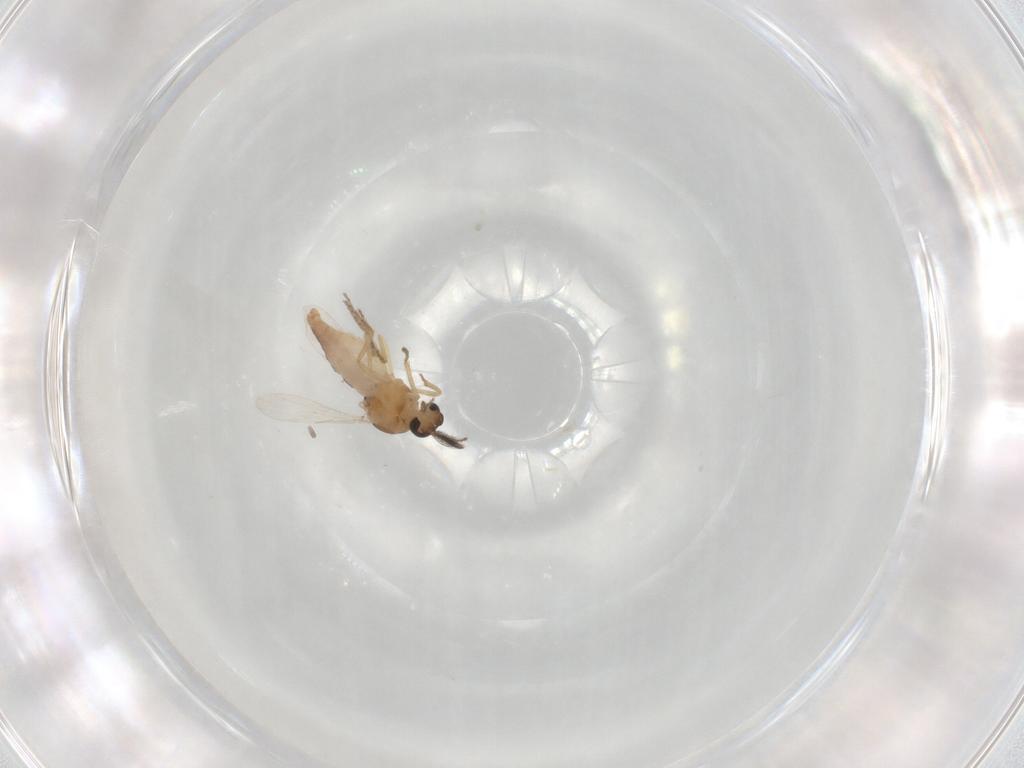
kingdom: Animalia
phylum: Arthropoda
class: Insecta
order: Diptera
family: Ceratopogonidae
